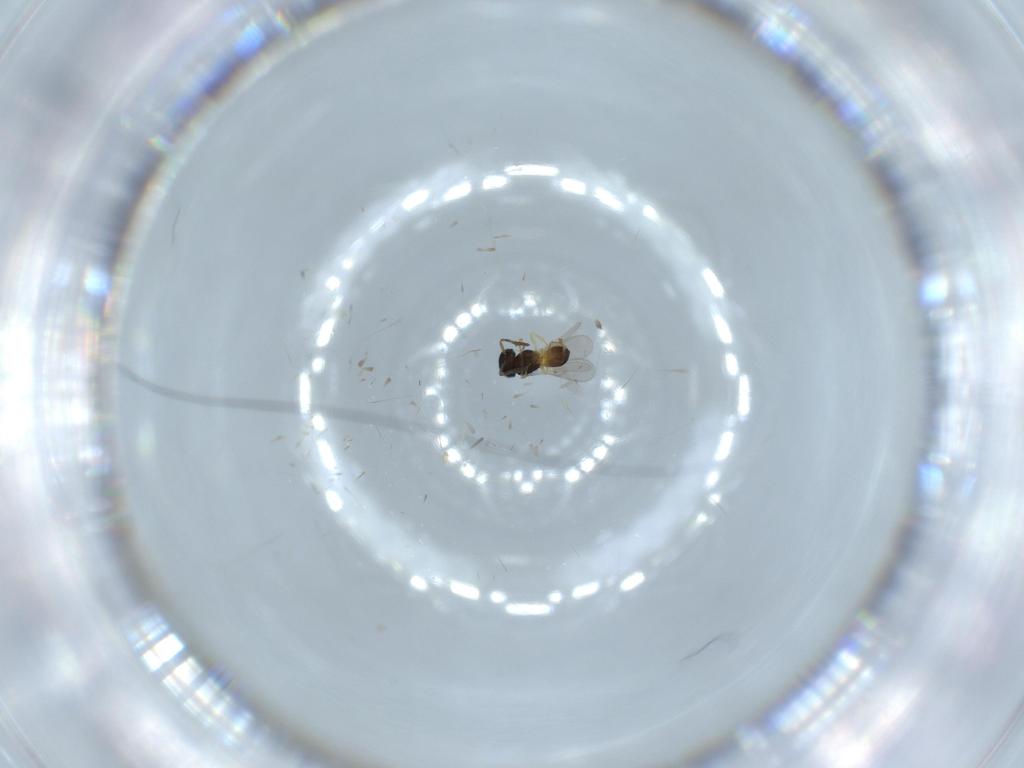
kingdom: Animalia
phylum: Arthropoda
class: Insecta
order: Hymenoptera
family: Scelionidae
